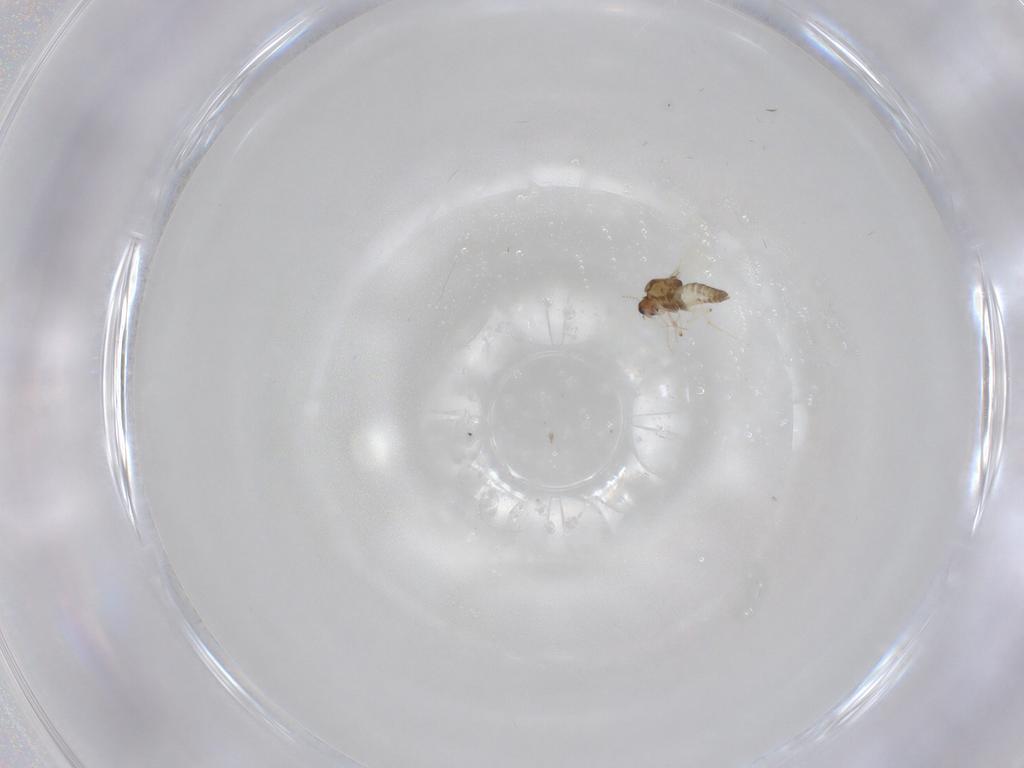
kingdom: Animalia
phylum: Arthropoda
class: Insecta
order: Diptera
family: Chironomidae
